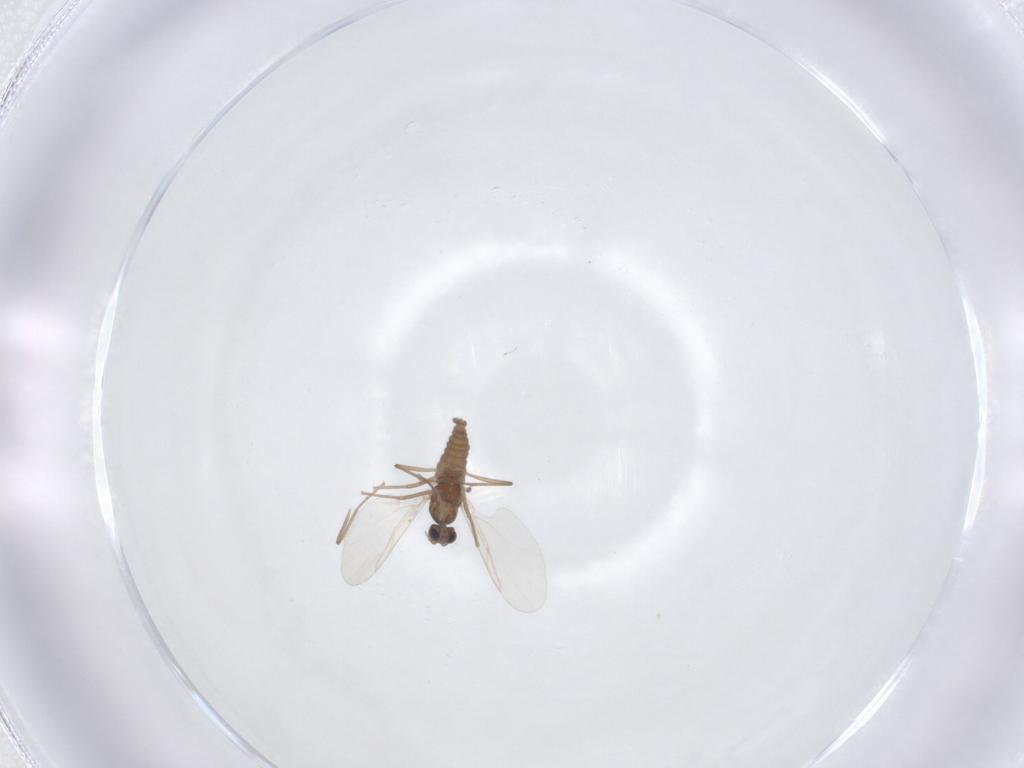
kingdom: Animalia
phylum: Arthropoda
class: Insecta
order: Diptera
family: Cecidomyiidae
